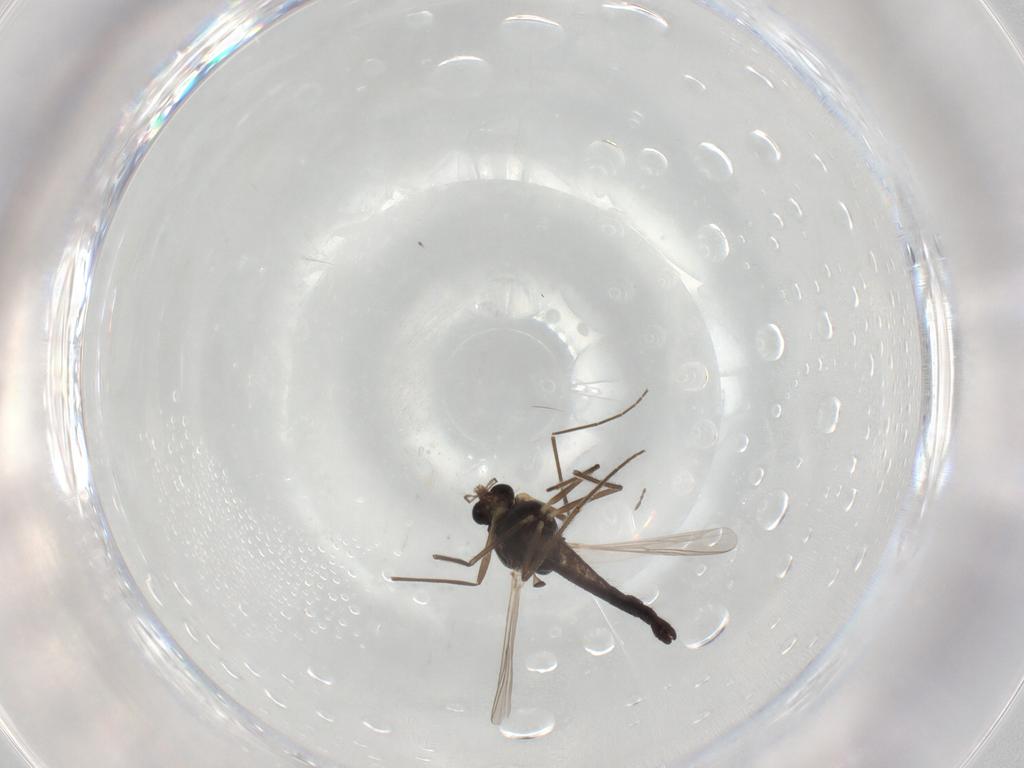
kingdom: Animalia
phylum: Arthropoda
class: Insecta
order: Diptera
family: Chironomidae
